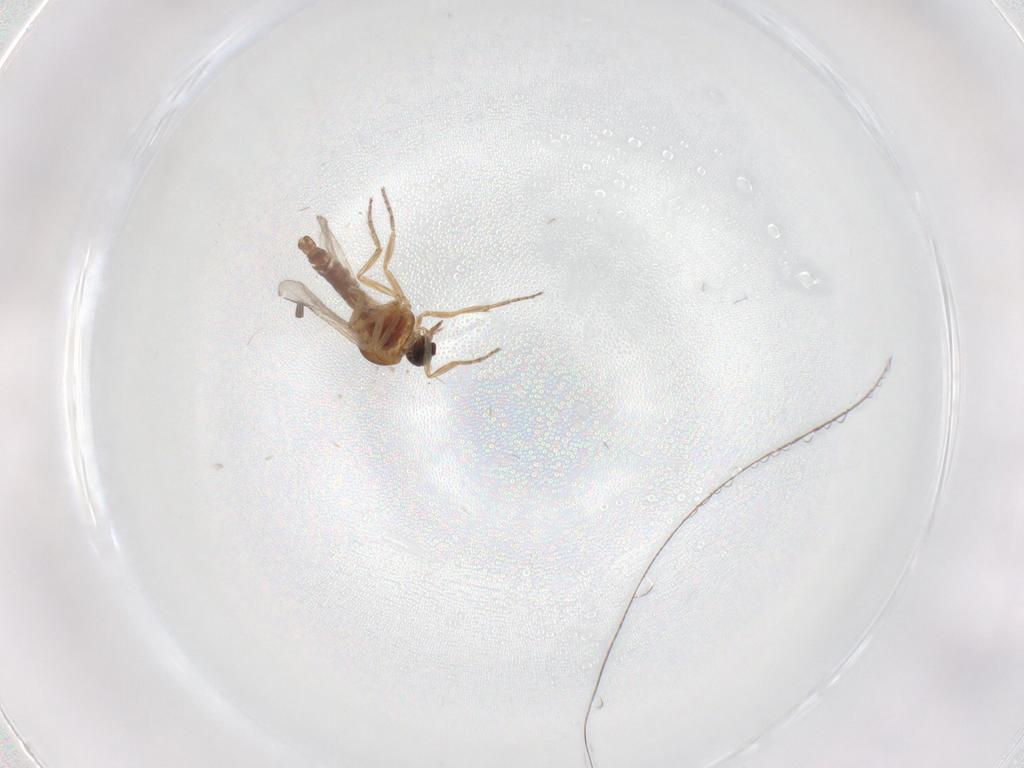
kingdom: Animalia
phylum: Arthropoda
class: Insecta
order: Diptera
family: Ceratopogonidae
